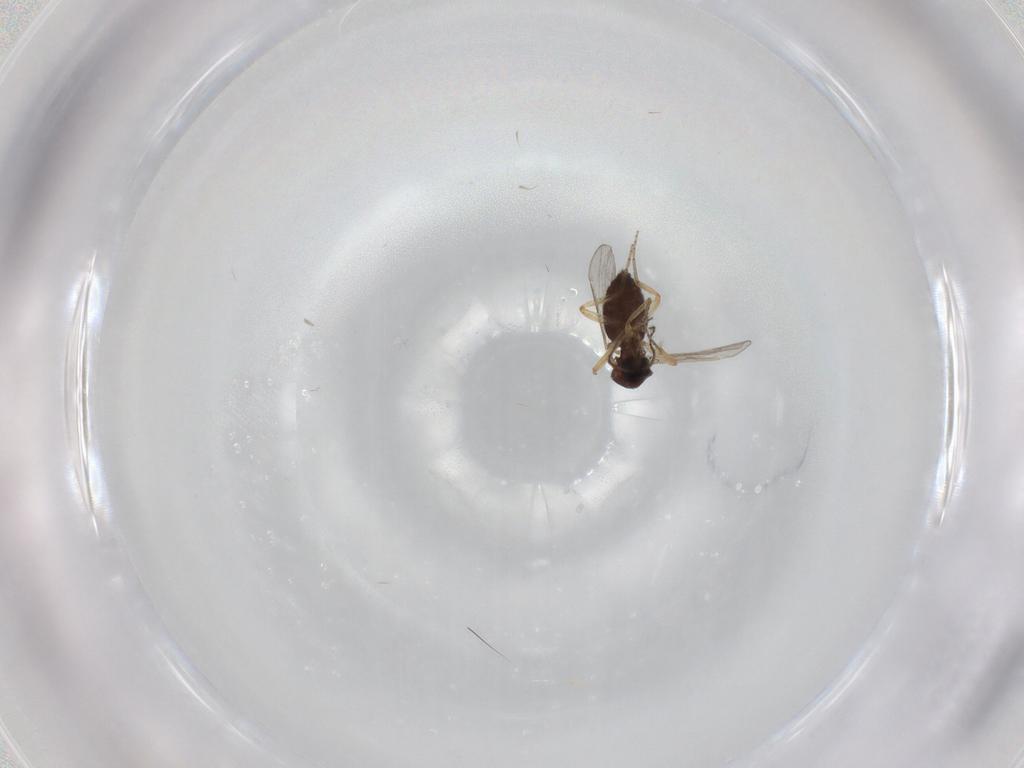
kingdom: Animalia
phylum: Arthropoda
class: Insecta
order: Diptera
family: Ceratopogonidae
